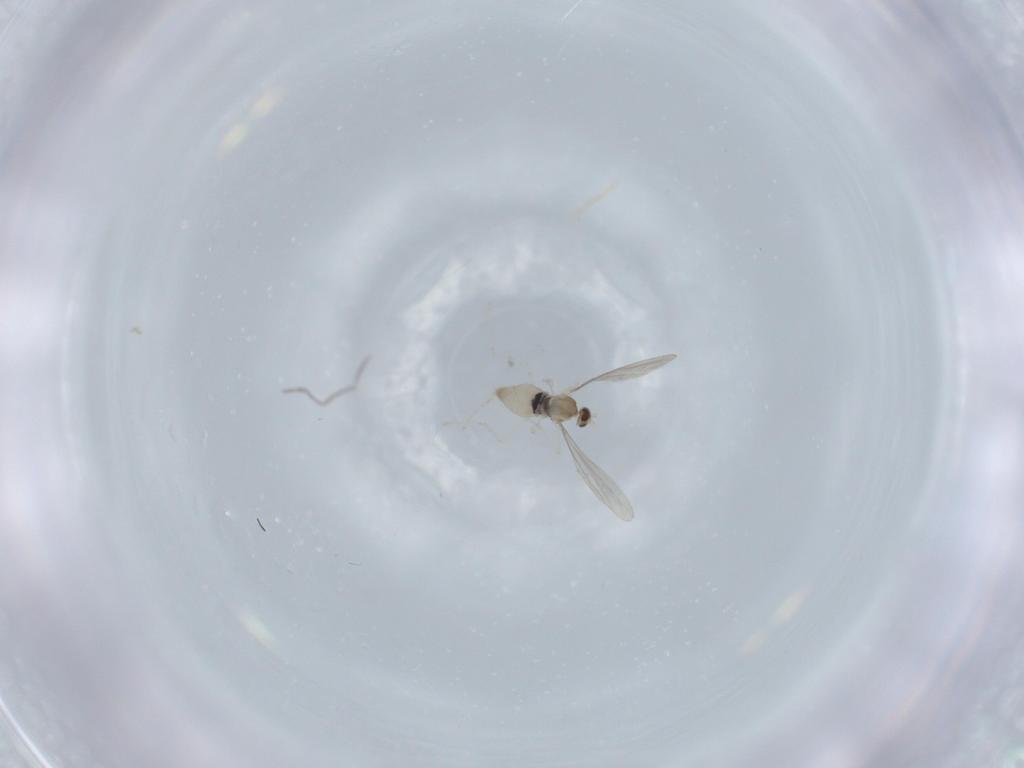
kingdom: Animalia
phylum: Arthropoda
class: Insecta
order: Diptera
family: Cecidomyiidae
